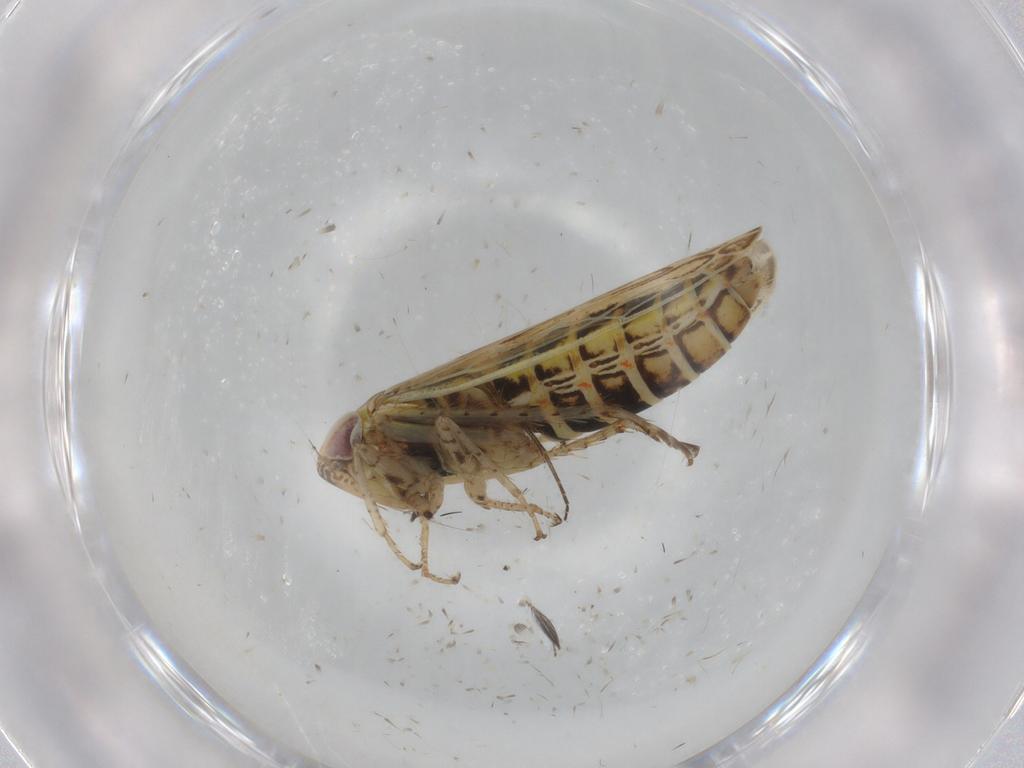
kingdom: Animalia
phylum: Arthropoda
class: Insecta
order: Hemiptera
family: Cicadellidae
